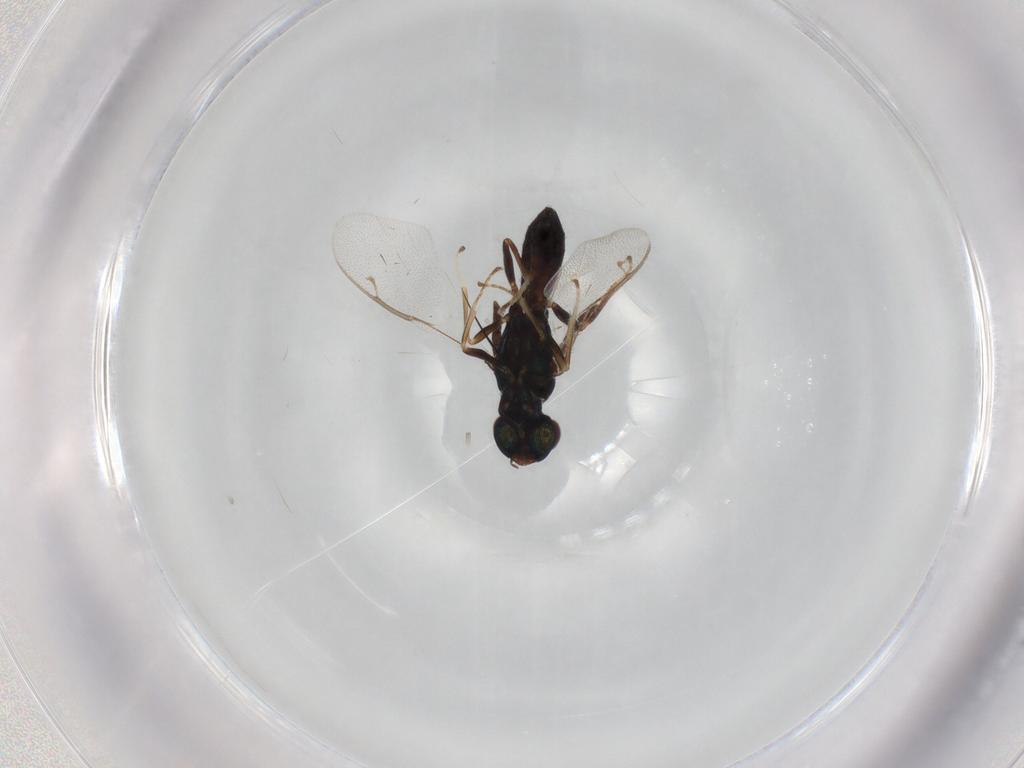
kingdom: Animalia
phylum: Arthropoda
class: Insecta
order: Hymenoptera
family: Pteromalidae
